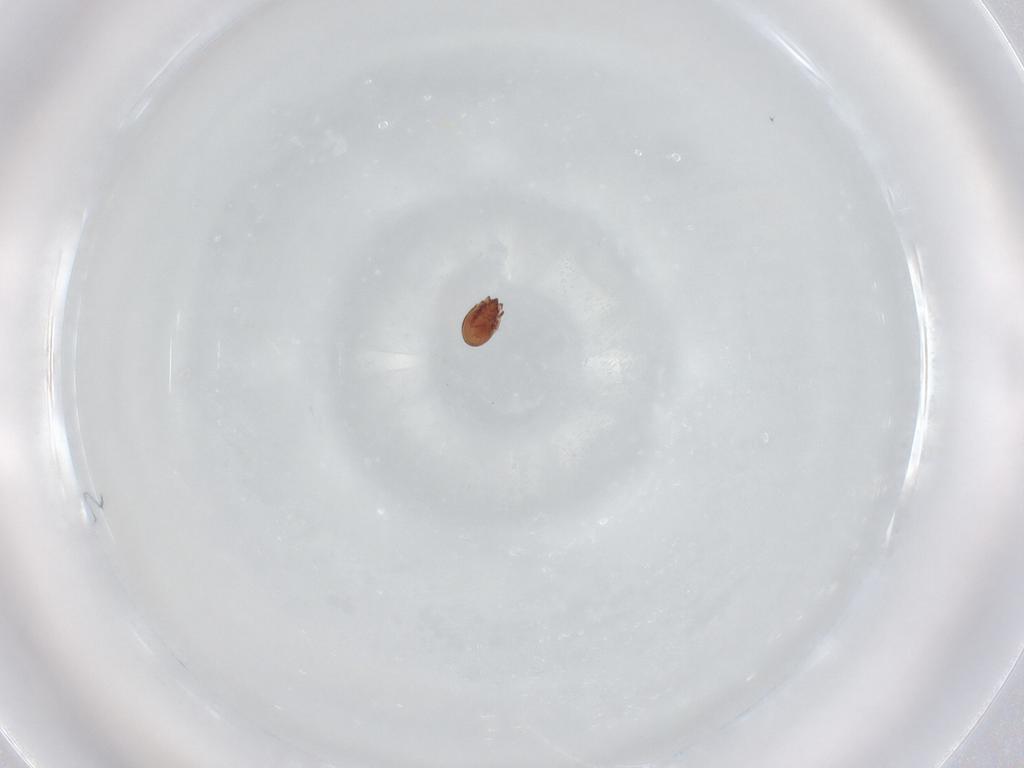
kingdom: Animalia
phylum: Arthropoda
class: Arachnida
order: Sarcoptiformes
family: Scheloribatidae
